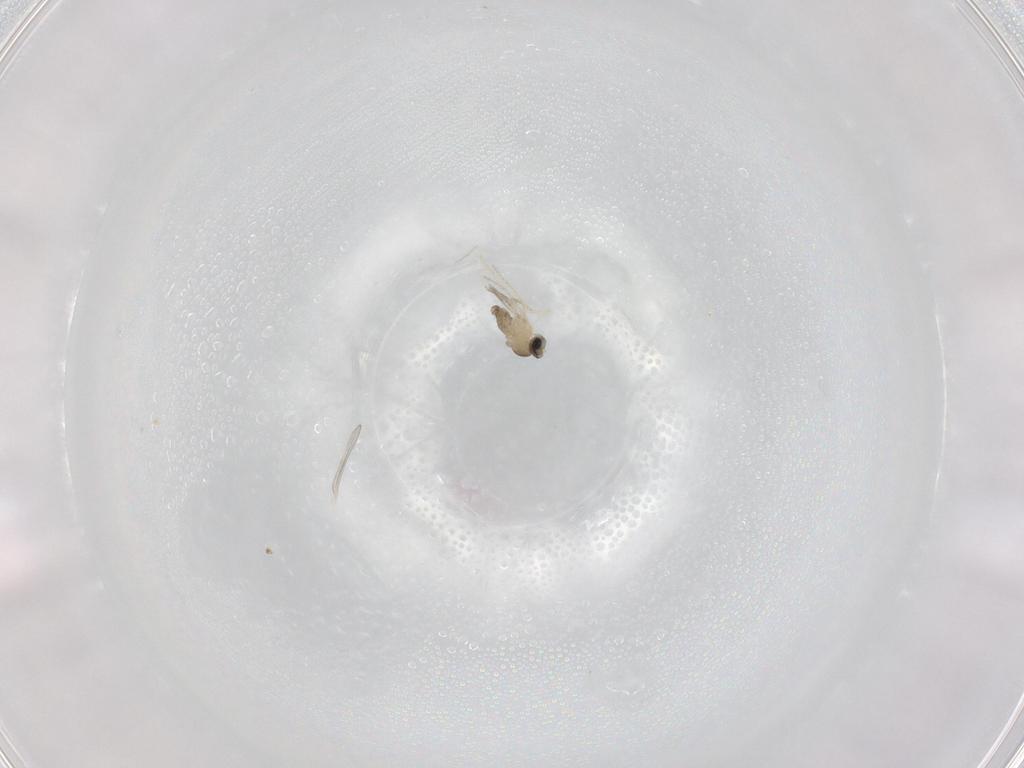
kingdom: Animalia
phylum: Arthropoda
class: Insecta
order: Diptera
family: Cecidomyiidae
